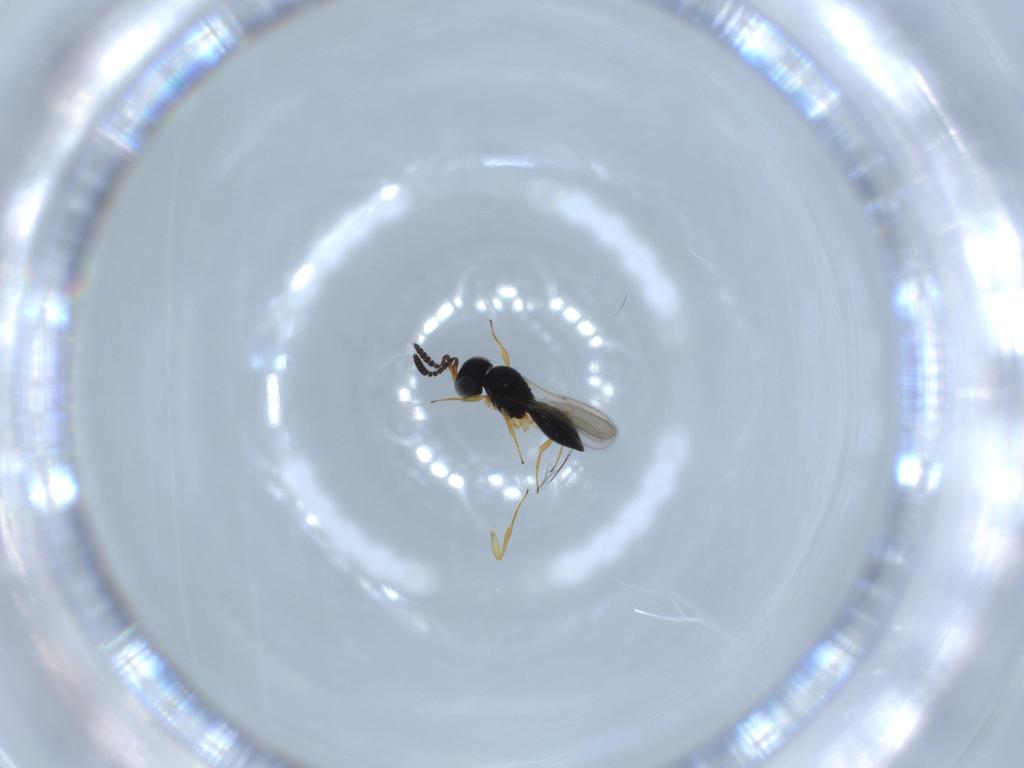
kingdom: Animalia
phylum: Arthropoda
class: Insecta
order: Hymenoptera
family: Scelionidae
